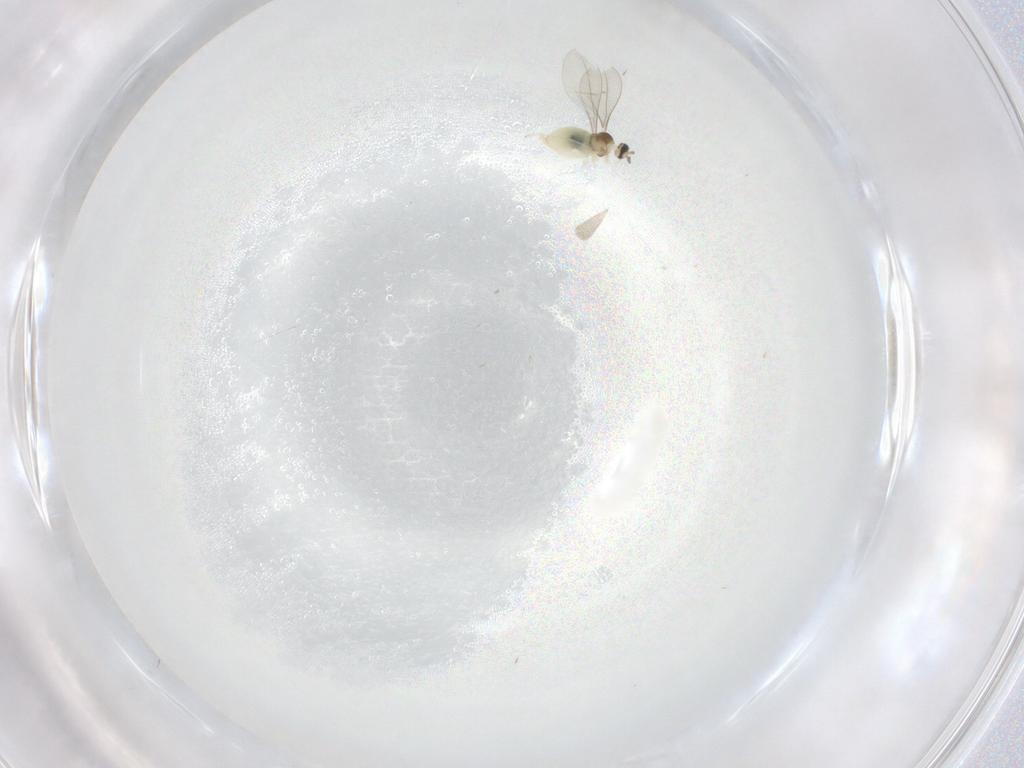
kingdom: Animalia
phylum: Arthropoda
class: Insecta
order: Diptera
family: Cecidomyiidae
